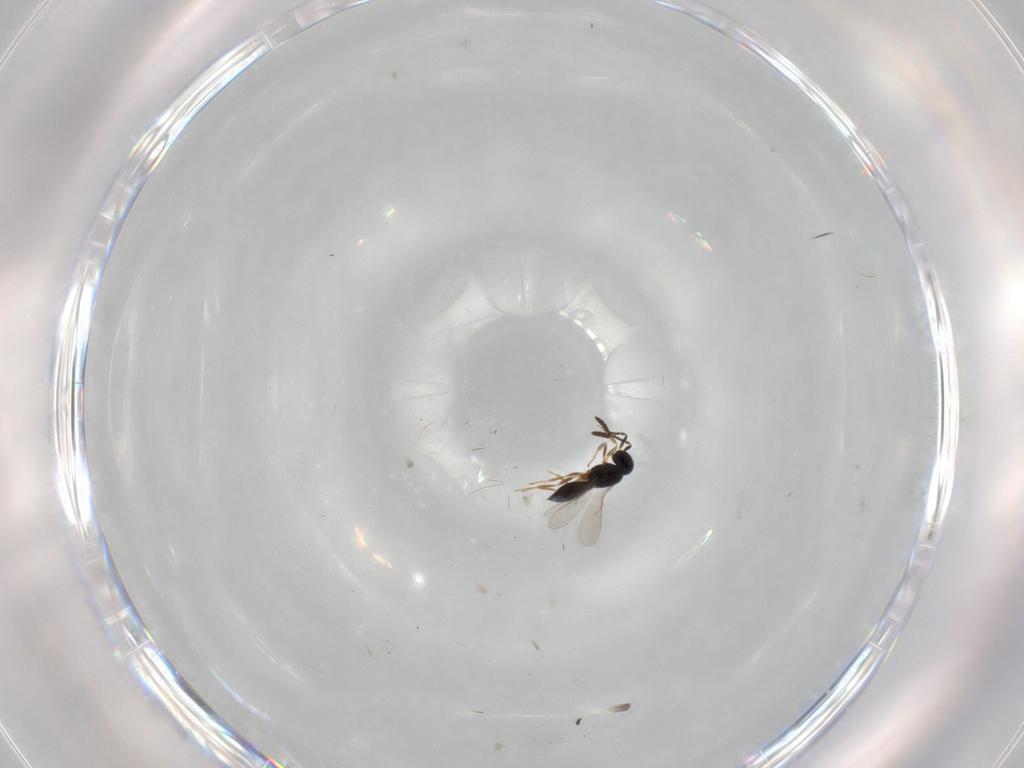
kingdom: Animalia
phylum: Arthropoda
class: Insecta
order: Hymenoptera
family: Scelionidae
